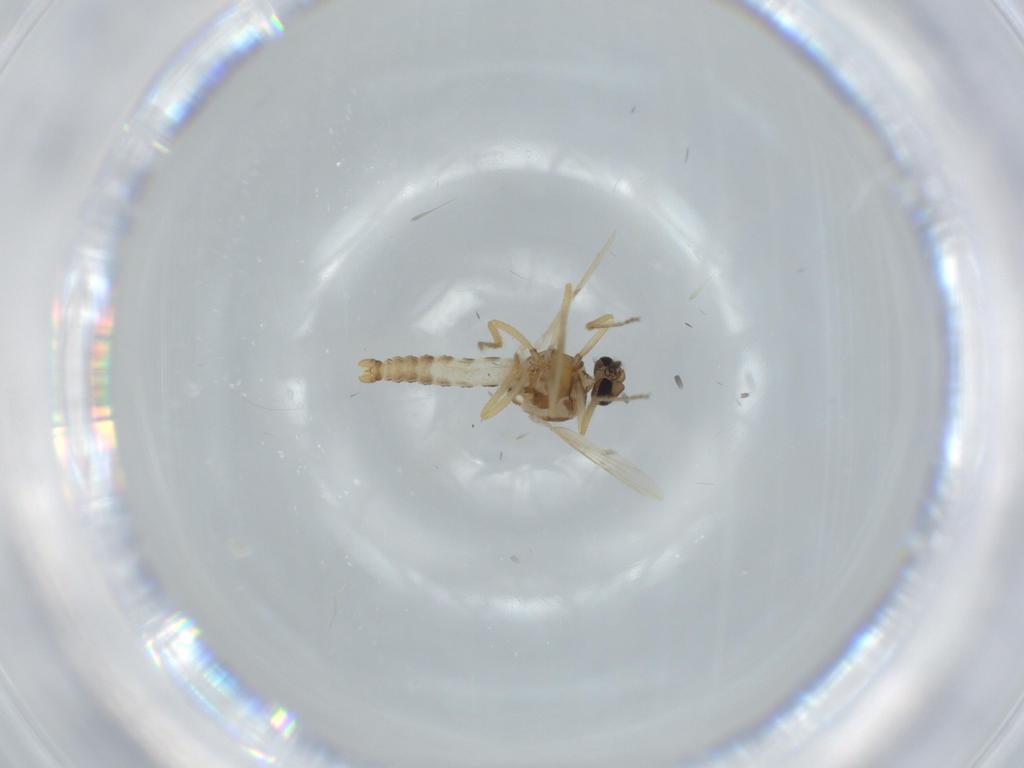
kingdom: Animalia
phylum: Arthropoda
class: Insecta
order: Diptera
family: Ceratopogonidae
